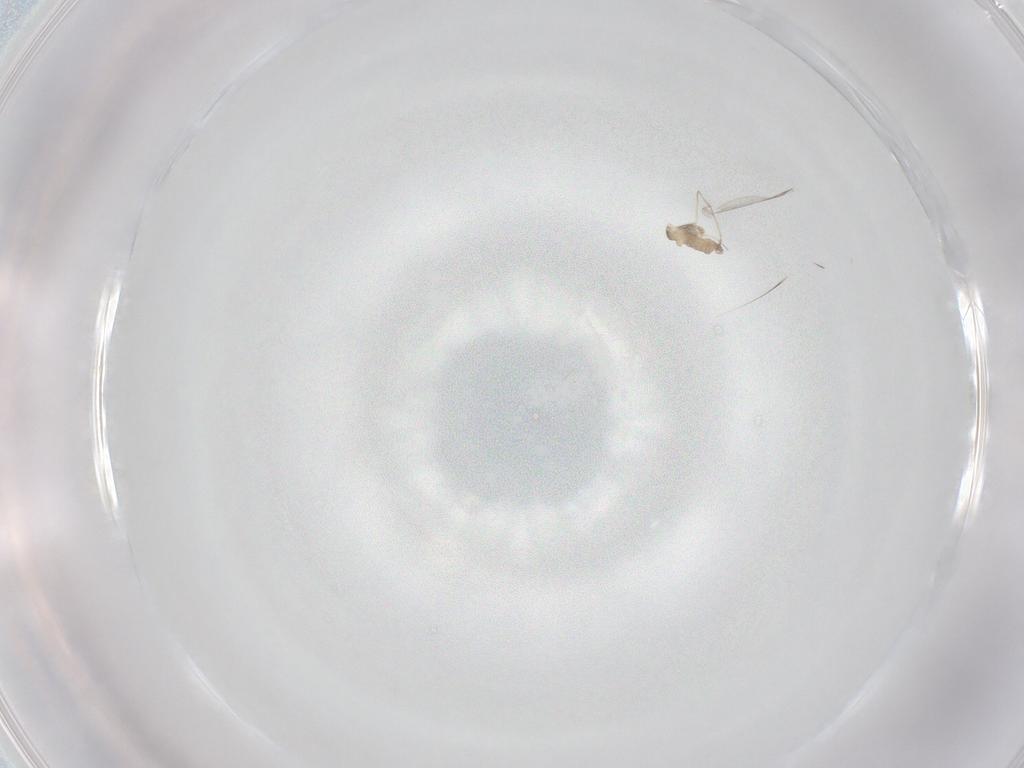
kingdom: Animalia
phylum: Arthropoda
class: Insecta
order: Diptera
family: Cecidomyiidae
